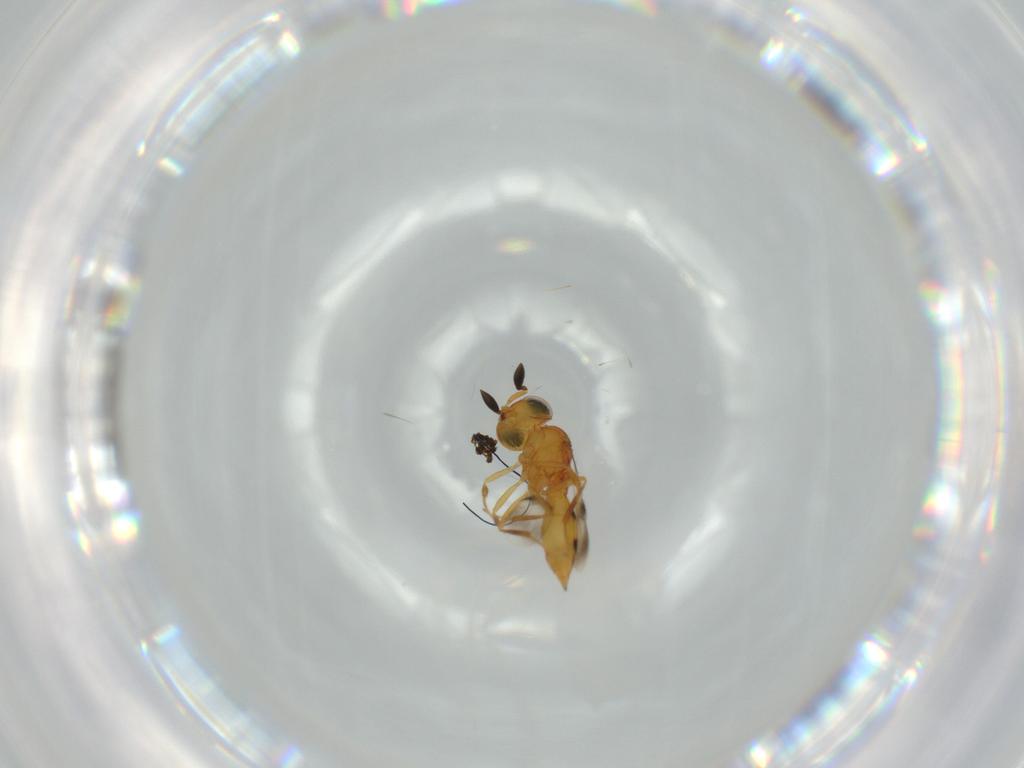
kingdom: Animalia
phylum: Arthropoda
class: Insecta
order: Hymenoptera
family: Scelionidae
